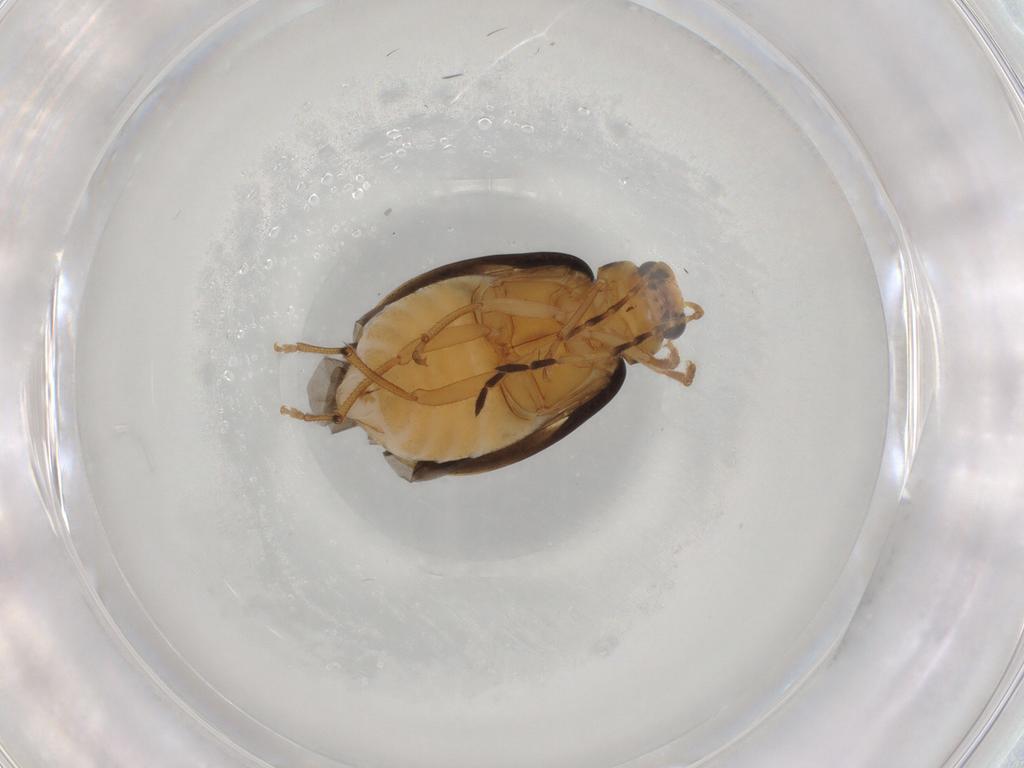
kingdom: Animalia
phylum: Arthropoda
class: Insecta
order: Coleoptera
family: Chrysomelidae
